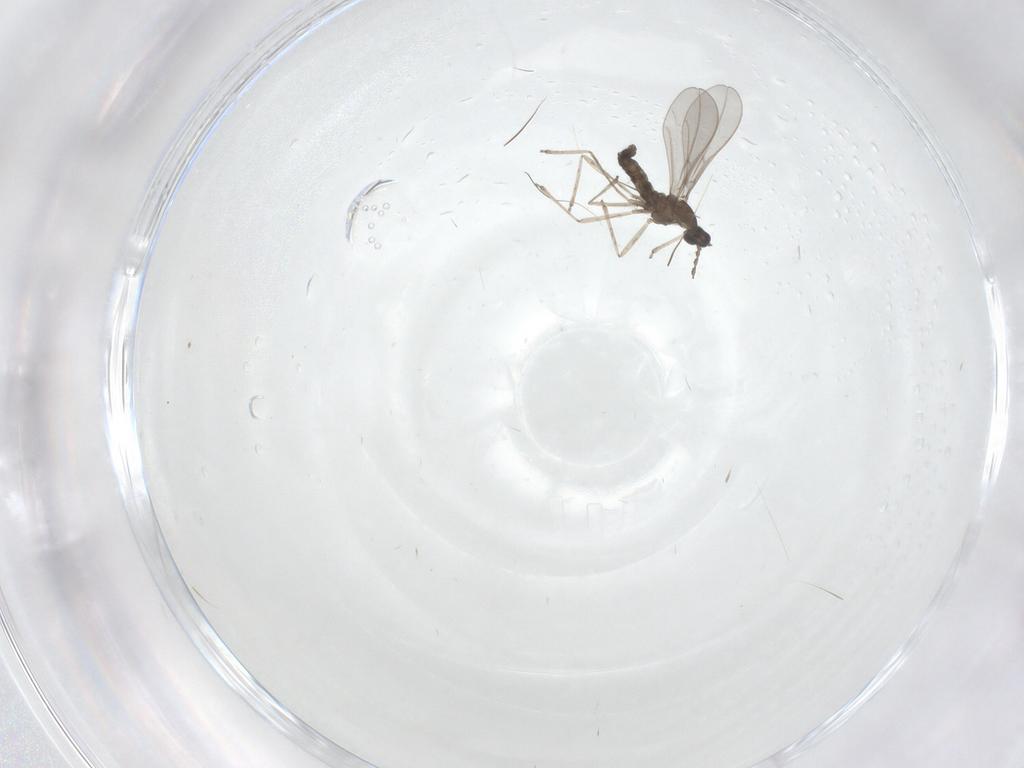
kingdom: Animalia
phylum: Arthropoda
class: Insecta
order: Diptera
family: Cecidomyiidae
